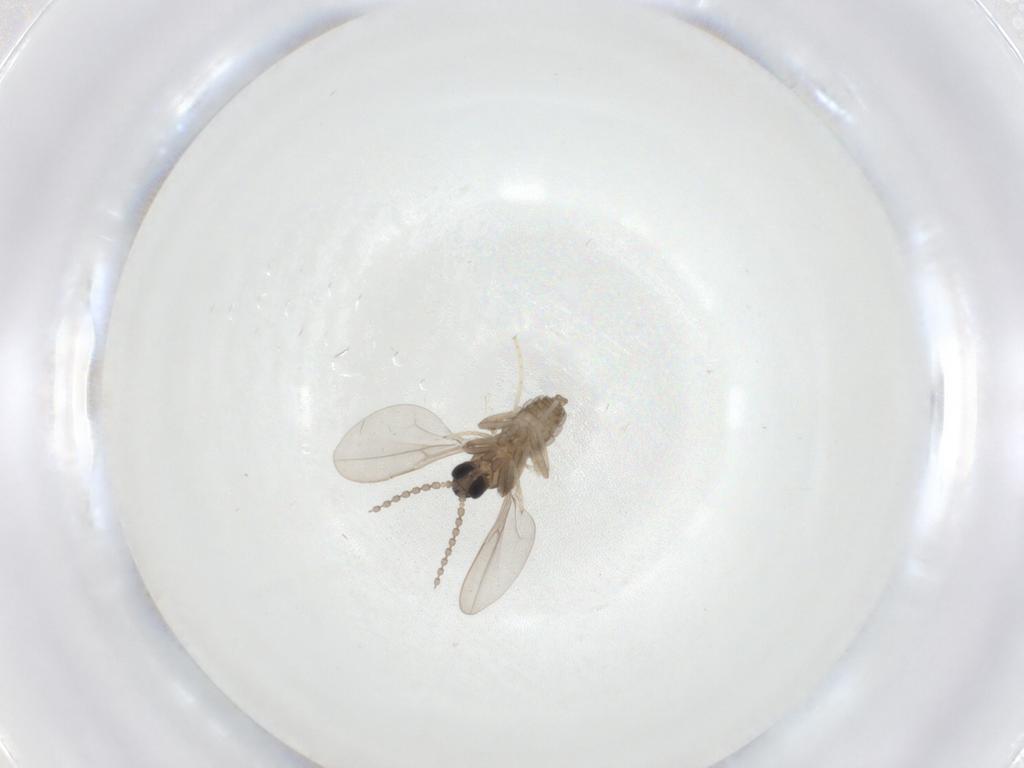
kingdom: Animalia
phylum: Arthropoda
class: Insecta
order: Diptera
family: Cecidomyiidae
